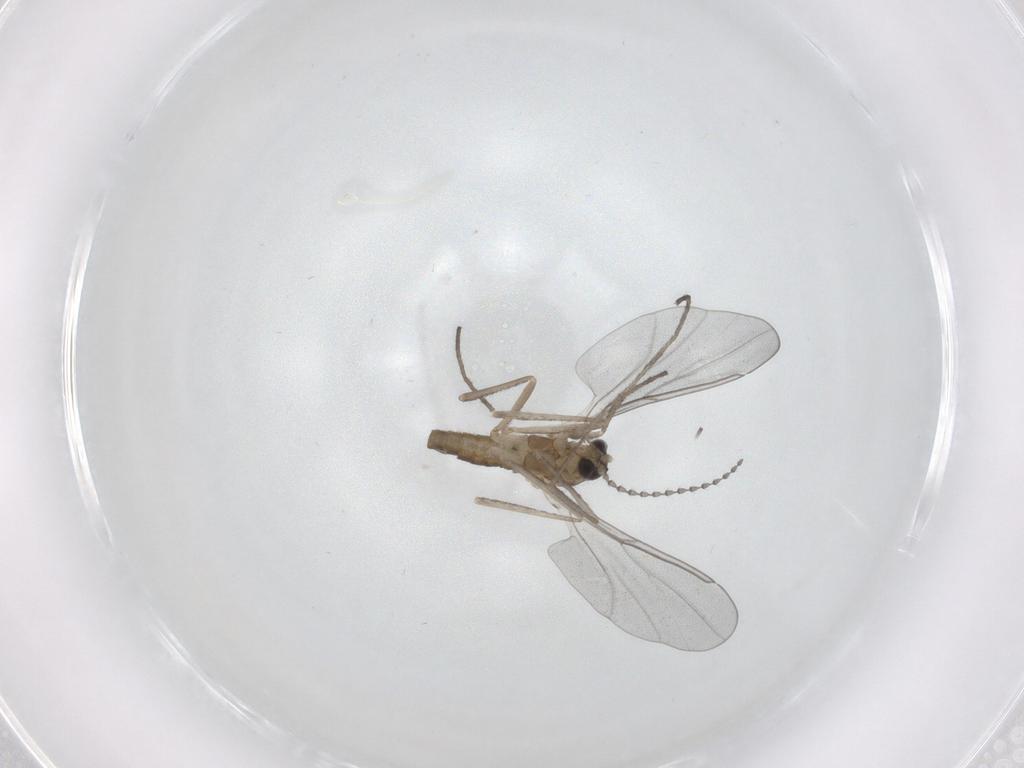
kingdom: Animalia
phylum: Arthropoda
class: Insecta
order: Diptera
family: Cecidomyiidae
